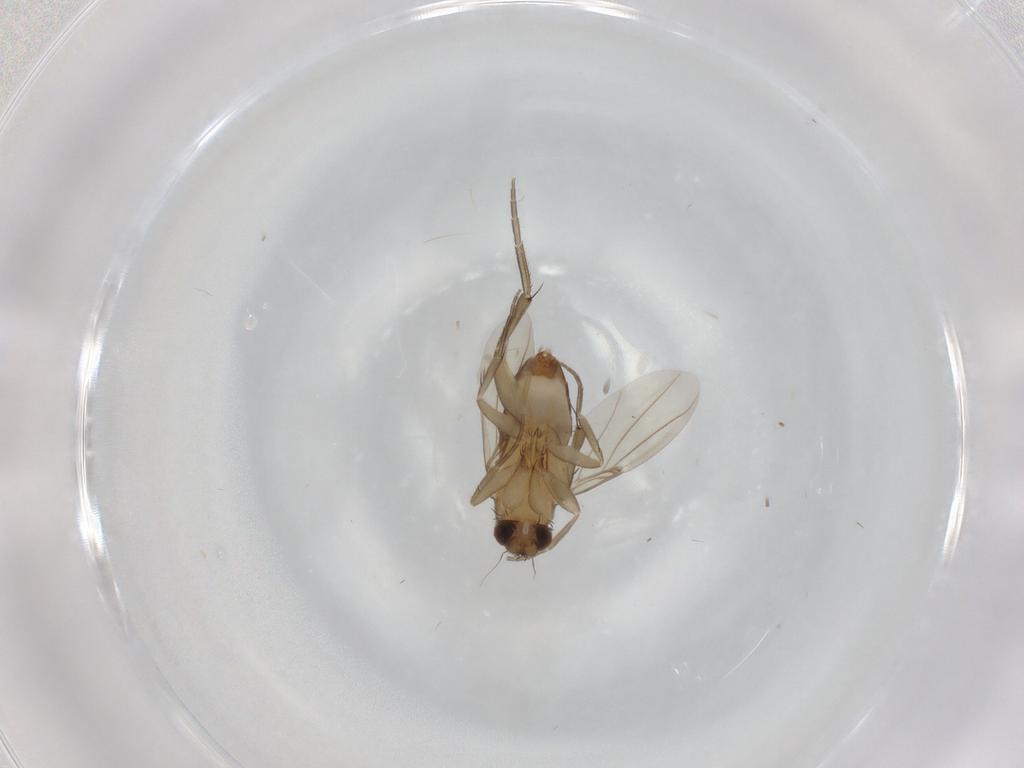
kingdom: Animalia
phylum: Arthropoda
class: Insecta
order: Diptera
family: Phoridae
